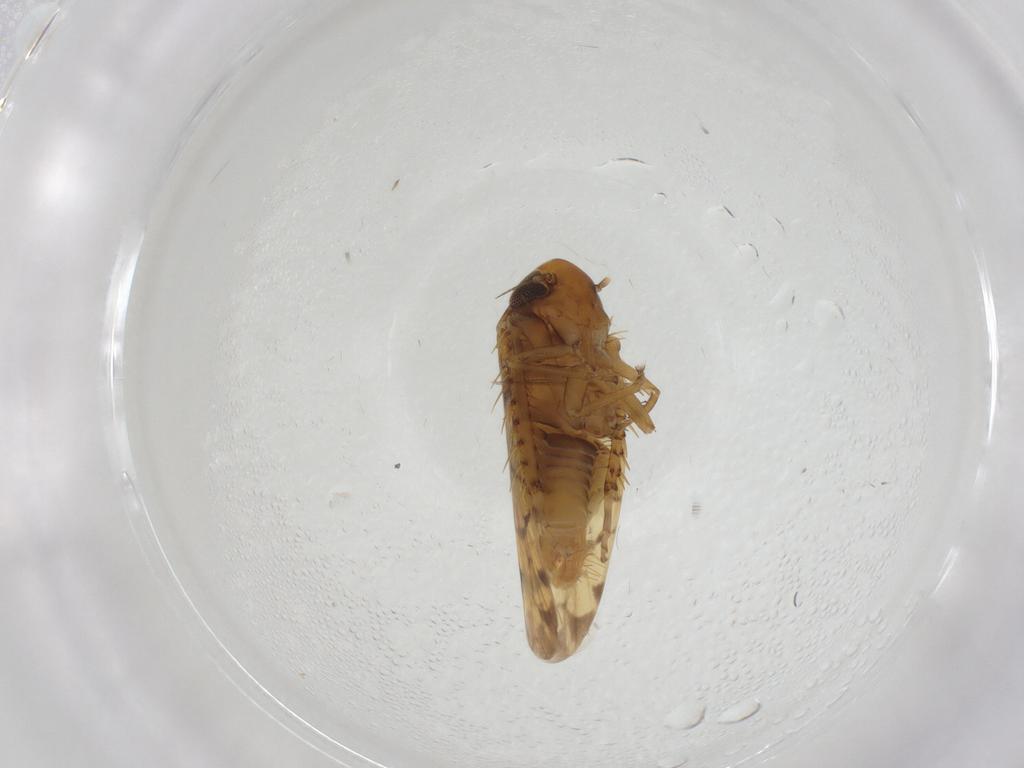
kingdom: Animalia
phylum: Arthropoda
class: Insecta
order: Hemiptera
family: Cicadellidae
